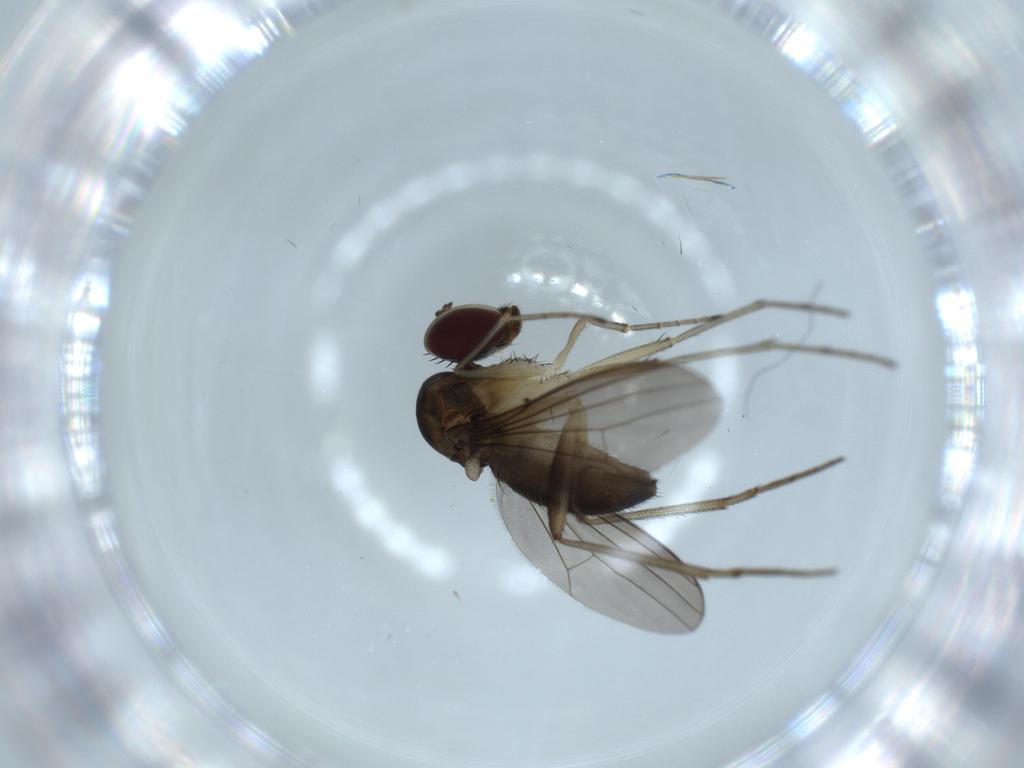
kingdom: Animalia
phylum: Arthropoda
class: Insecta
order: Diptera
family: Dolichopodidae
